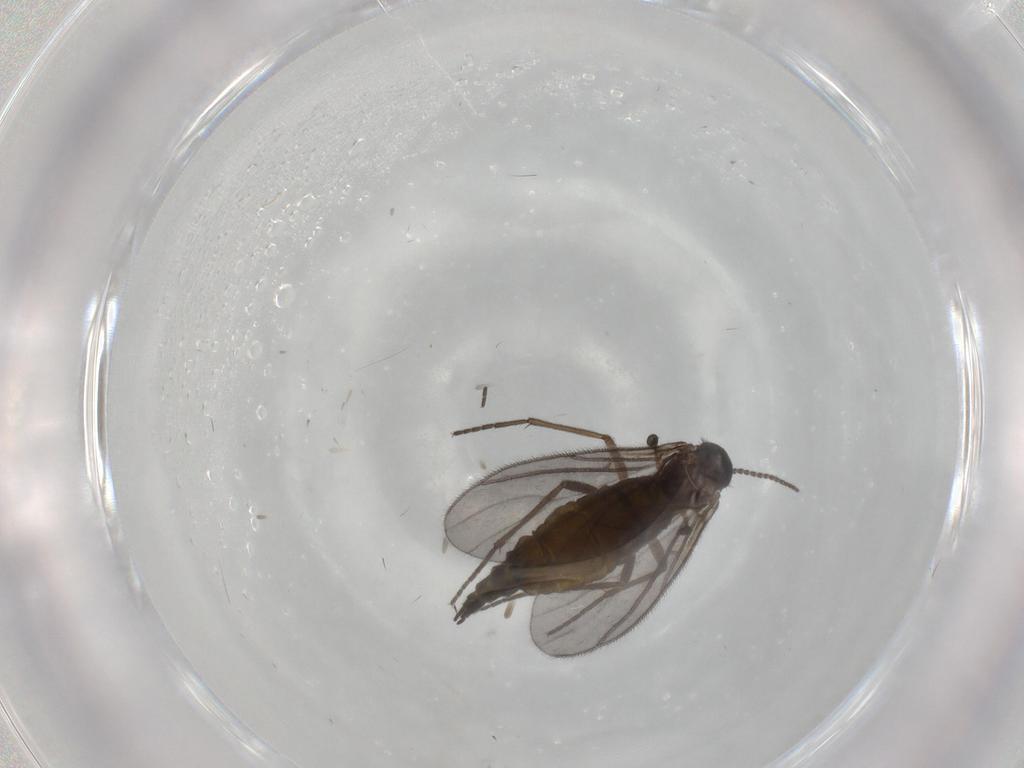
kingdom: Animalia
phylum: Arthropoda
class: Insecta
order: Diptera
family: Sciaridae
